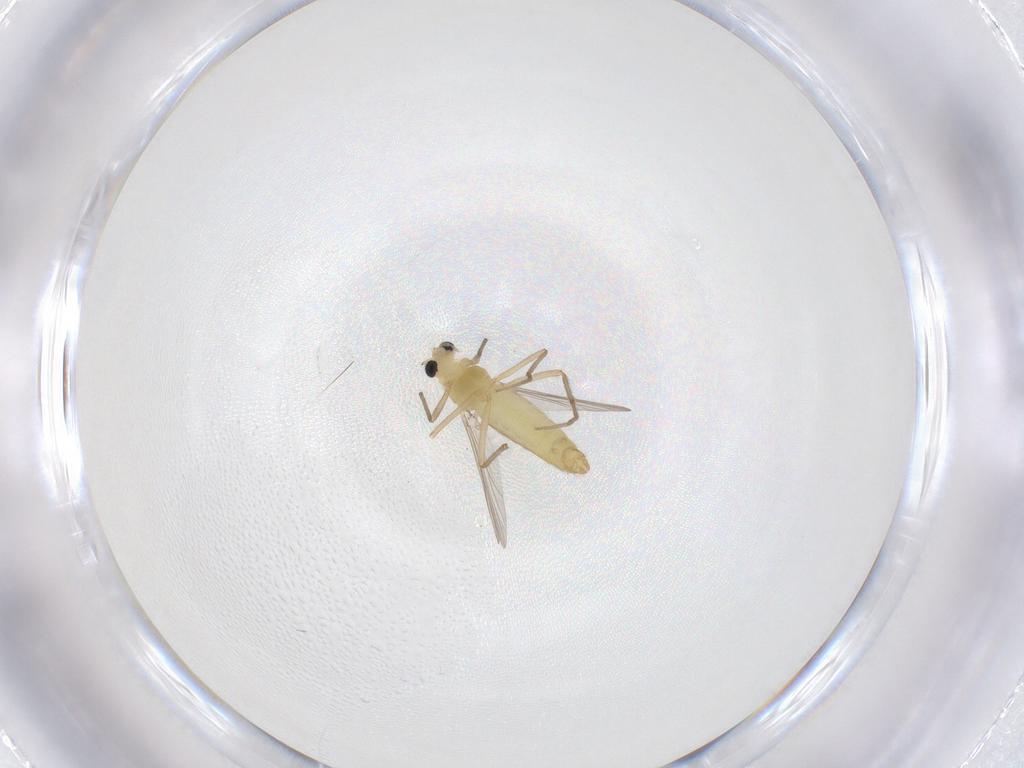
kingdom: Animalia
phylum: Arthropoda
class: Insecta
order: Diptera
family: Chironomidae
